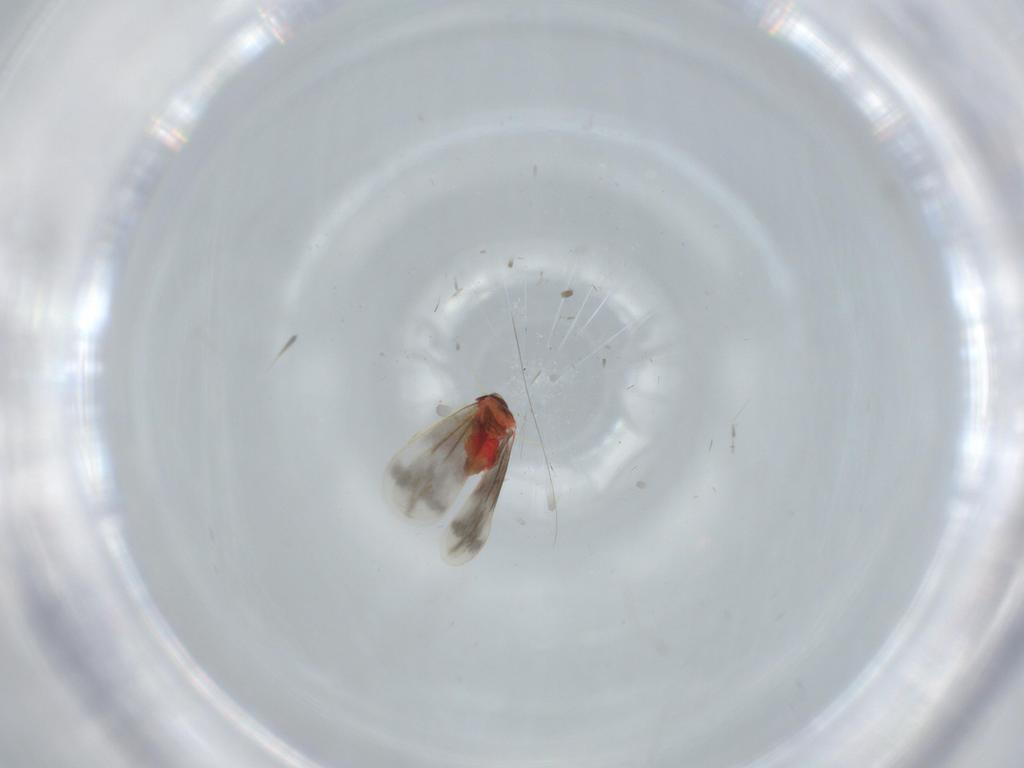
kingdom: Animalia
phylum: Arthropoda
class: Insecta
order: Hemiptera
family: Aleyrodidae
